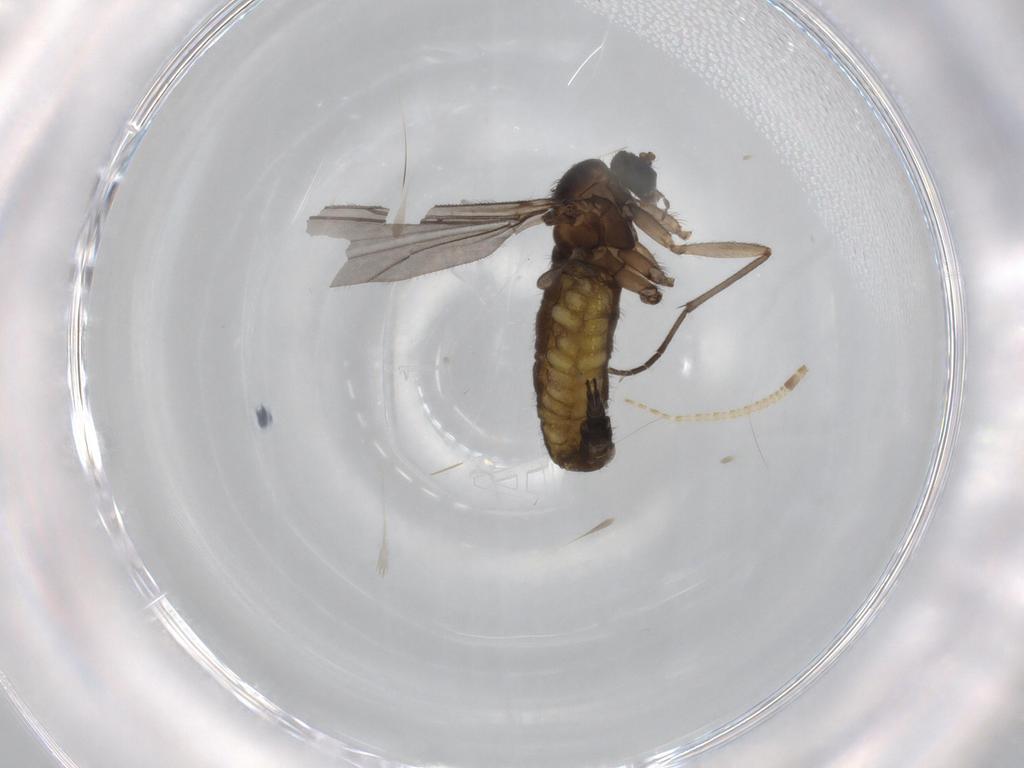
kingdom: Animalia
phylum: Arthropoda
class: Insecta
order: Diptera
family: Sciaridae
